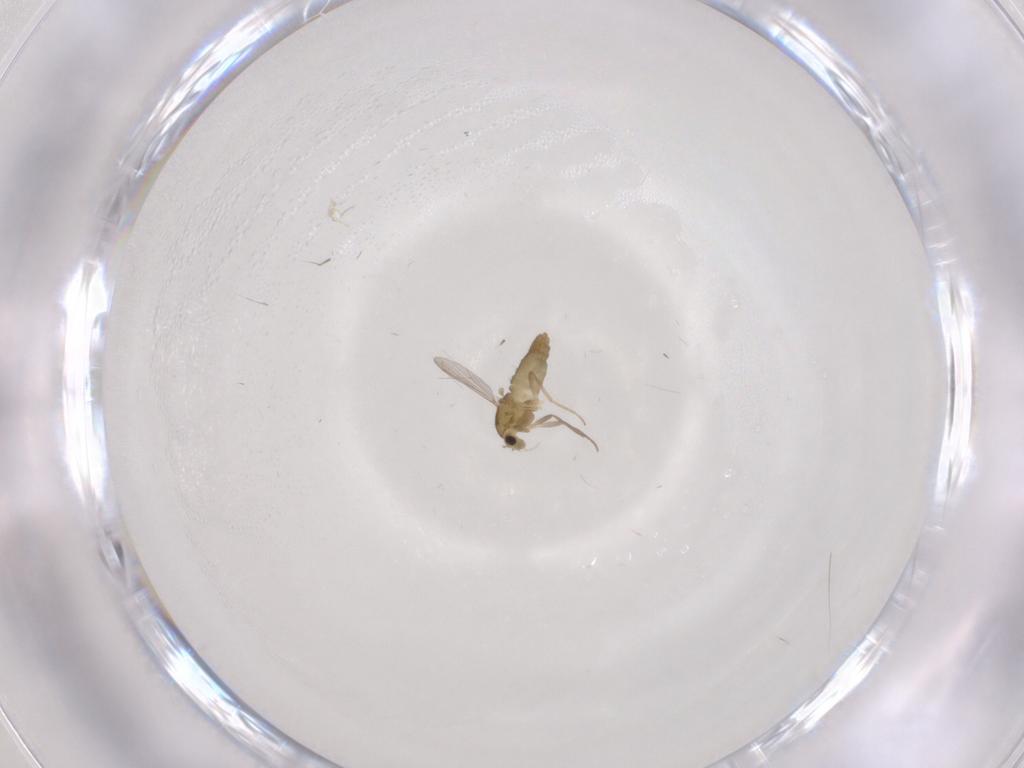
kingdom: Animalia
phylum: Arthropoda
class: Insecta
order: Diptera
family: Chironomidae
